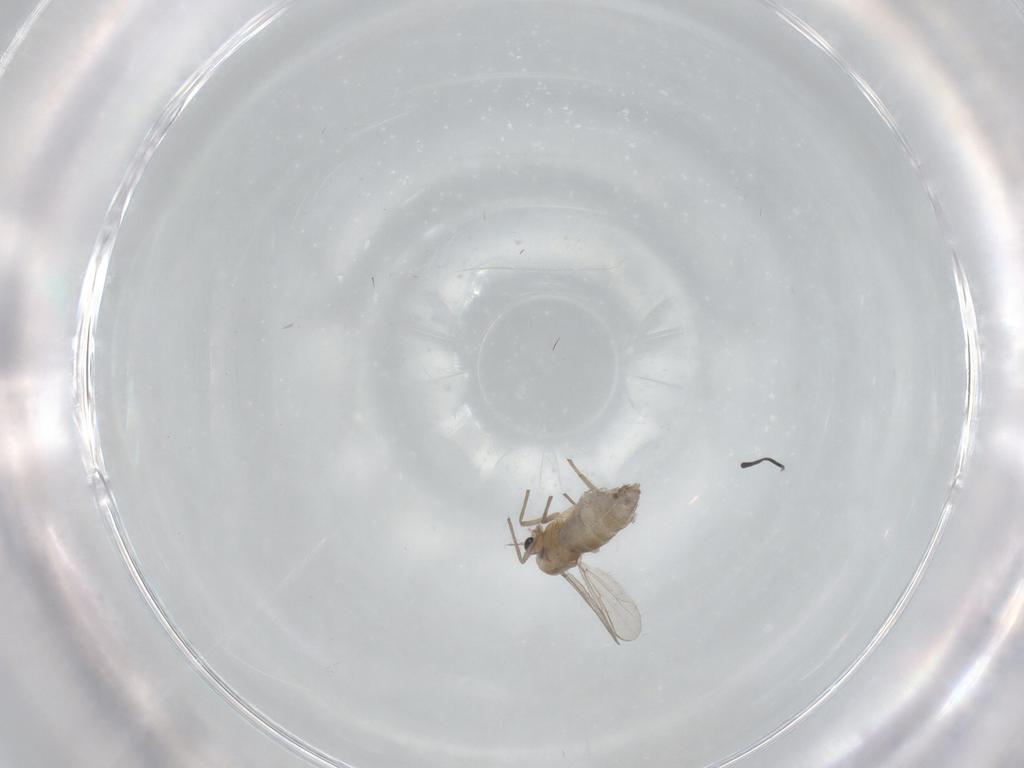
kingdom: Animalia
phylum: Arthropoda
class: Insecta
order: Diptera
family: Chironomidae
